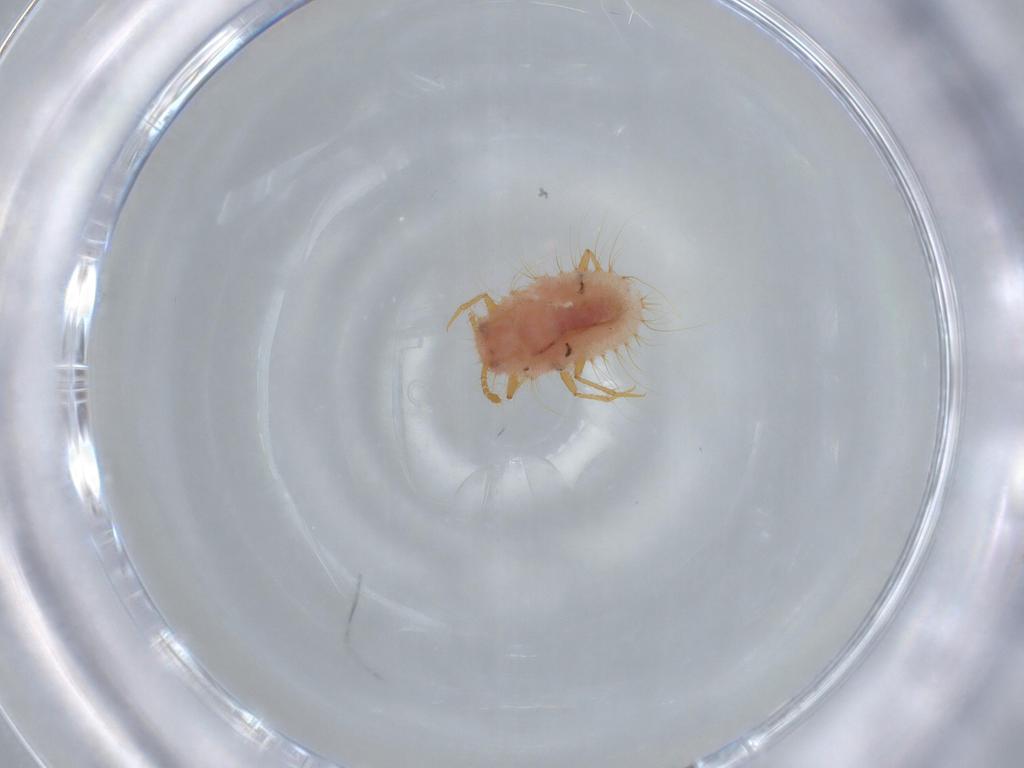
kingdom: Animalia
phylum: Arthropoda
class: Insecta
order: Hemiptera
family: Coccoidea_incertae_sedis
